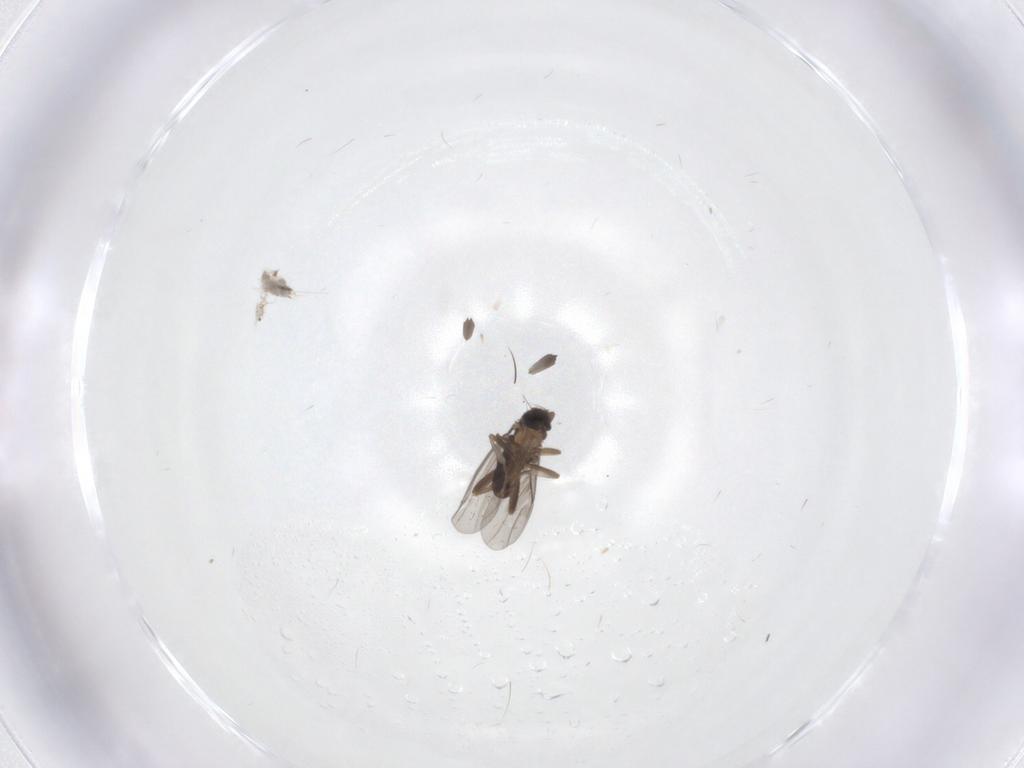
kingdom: Animalia
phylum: Arthropoda
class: Insecta
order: Diptera
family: Sciaridae
